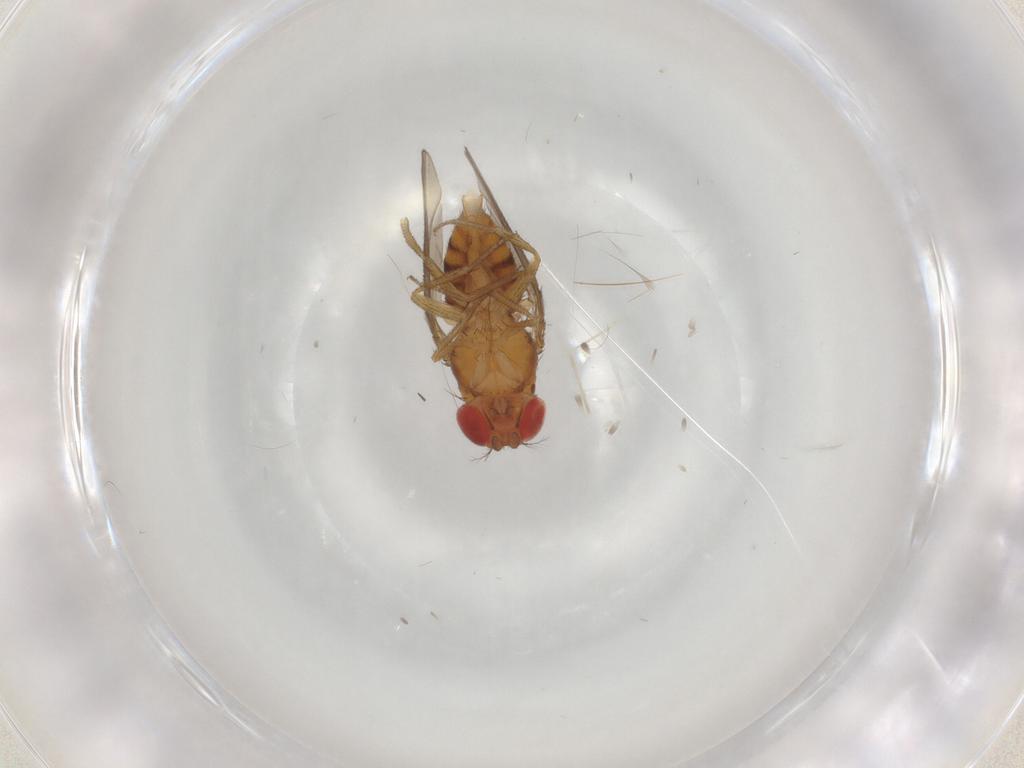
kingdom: Animalia
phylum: Arthropoda
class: Insecta
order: Diptera
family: Drosophilidae
